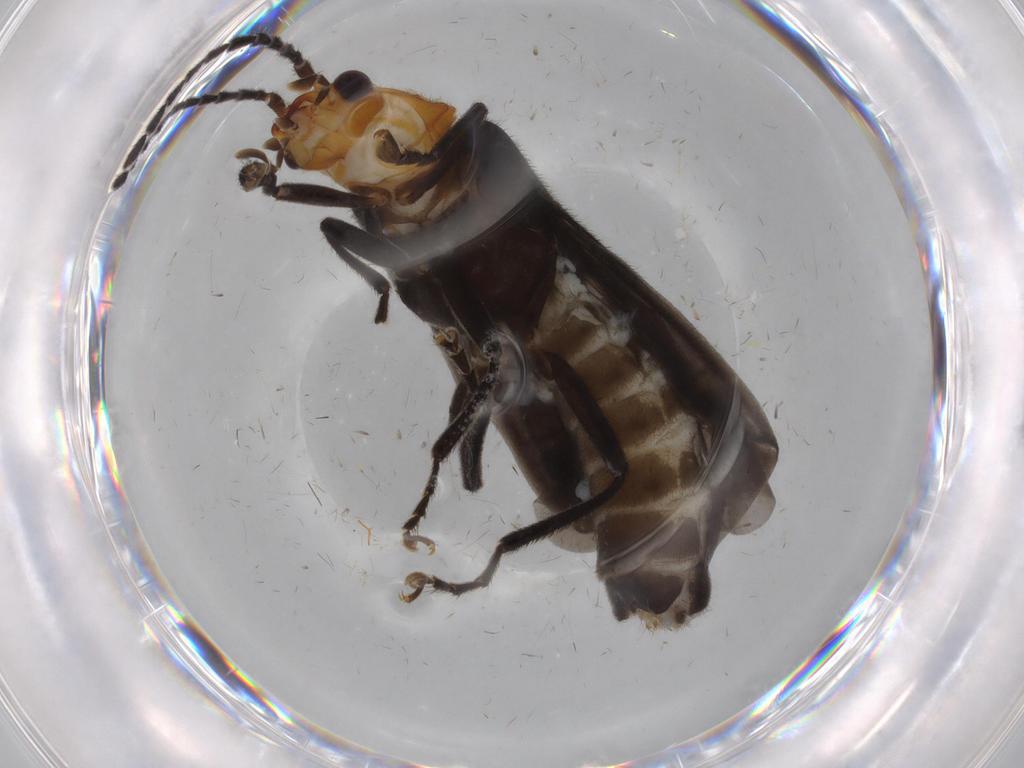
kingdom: Animalia
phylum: Arthropoda
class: Insecta
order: Coleoptera
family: Cantharidae
